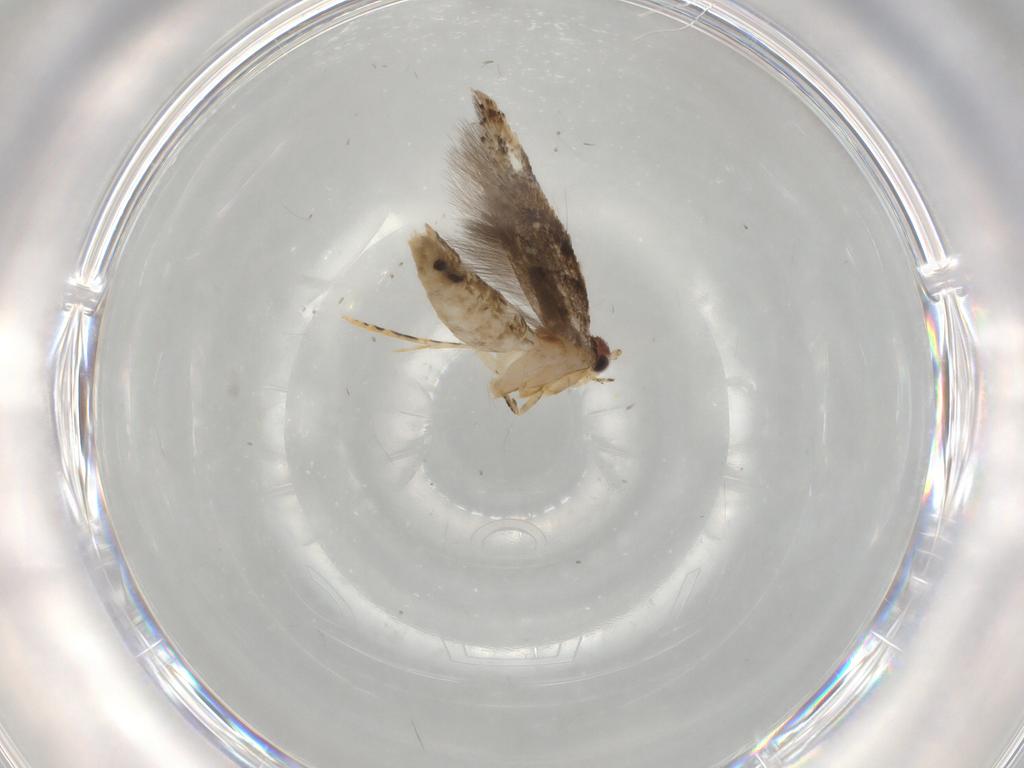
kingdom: Animalia
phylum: Arthropoda
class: Insecta
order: Lepidoptera
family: Tineidae
